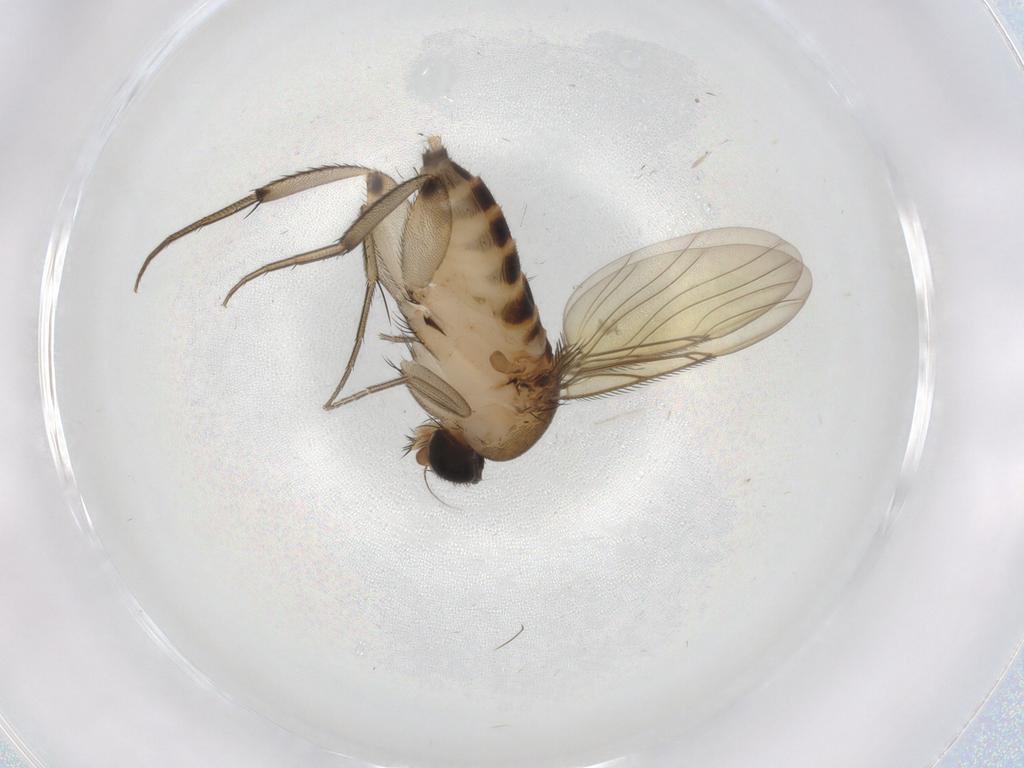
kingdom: Animalia
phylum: Arthropoda
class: Insecta
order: Diptera
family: Phoridae
